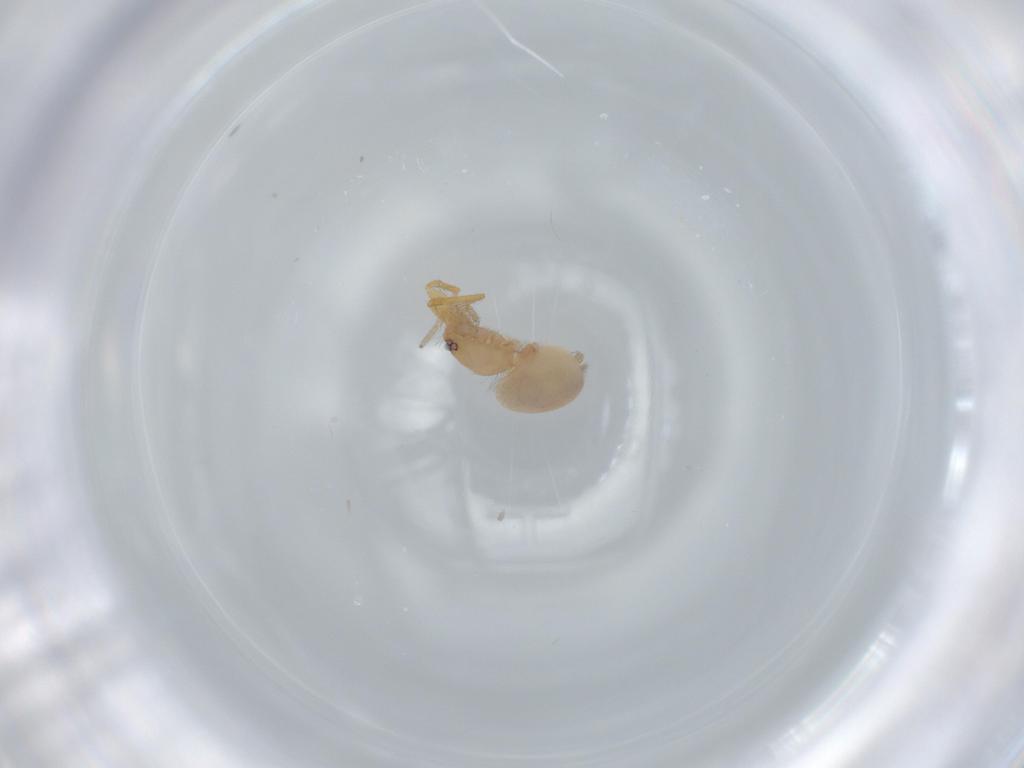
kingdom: Animalia
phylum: Arthropoda
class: Arachnida
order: Araneae
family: Oonopidae
